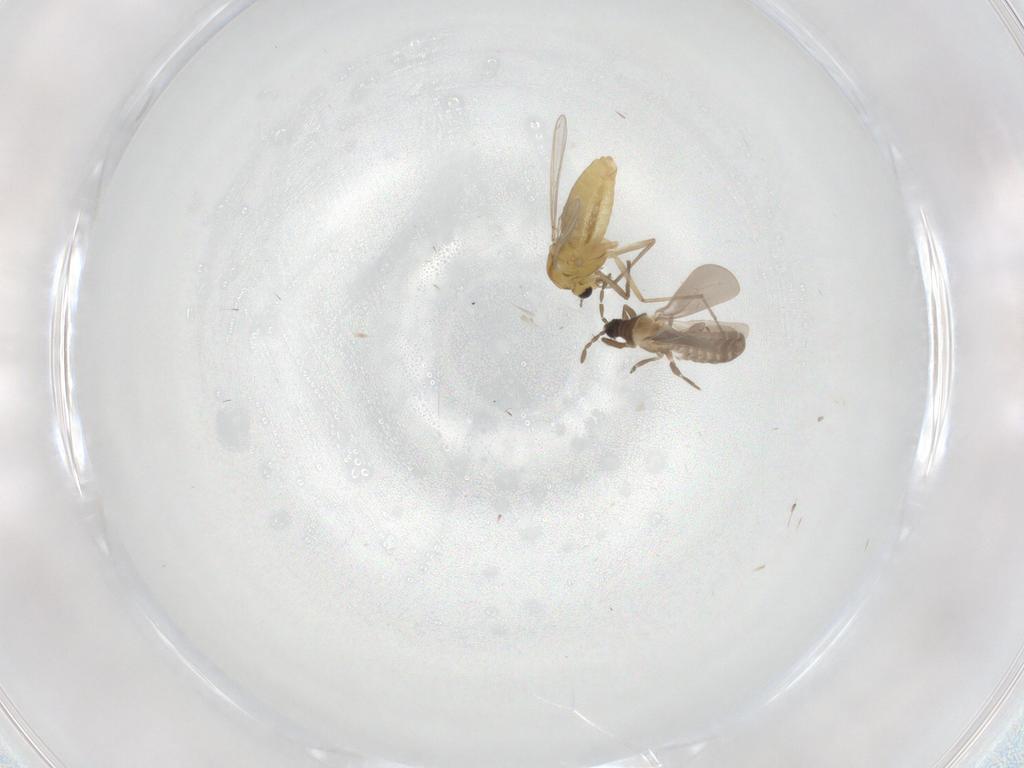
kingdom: Animalia
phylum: Arthropoda
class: Insecta
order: Diptera
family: Chironomidae
